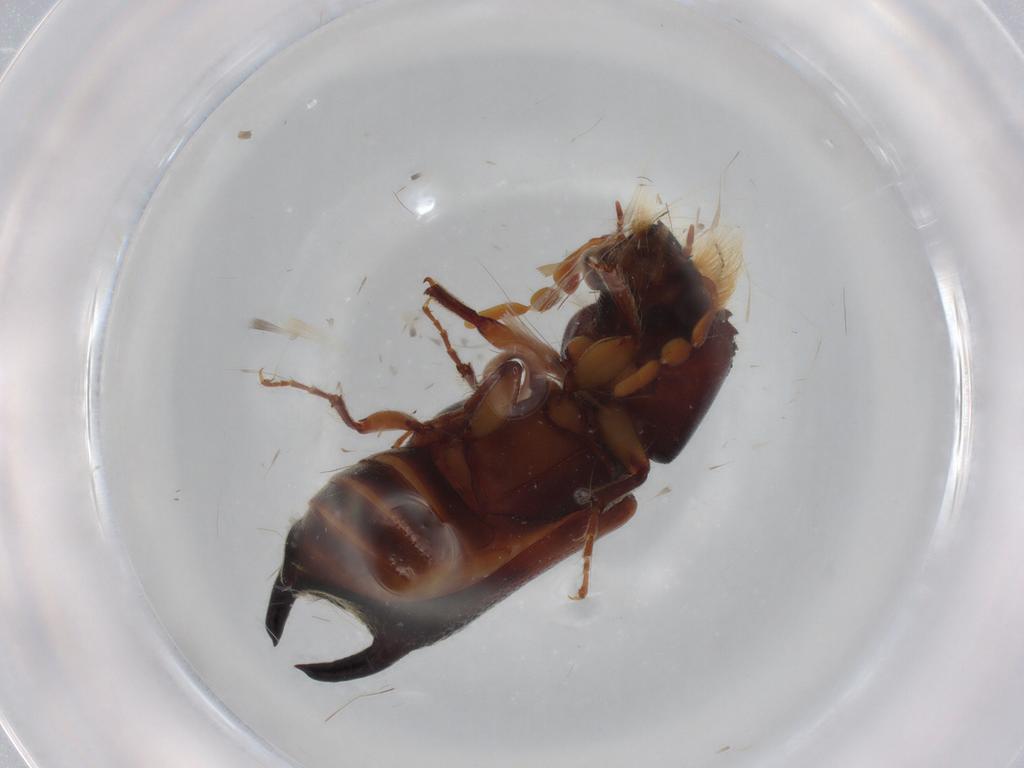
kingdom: Animalia
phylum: Arthropoda
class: Insecta
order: Coleoptera
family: Bostrichidae
